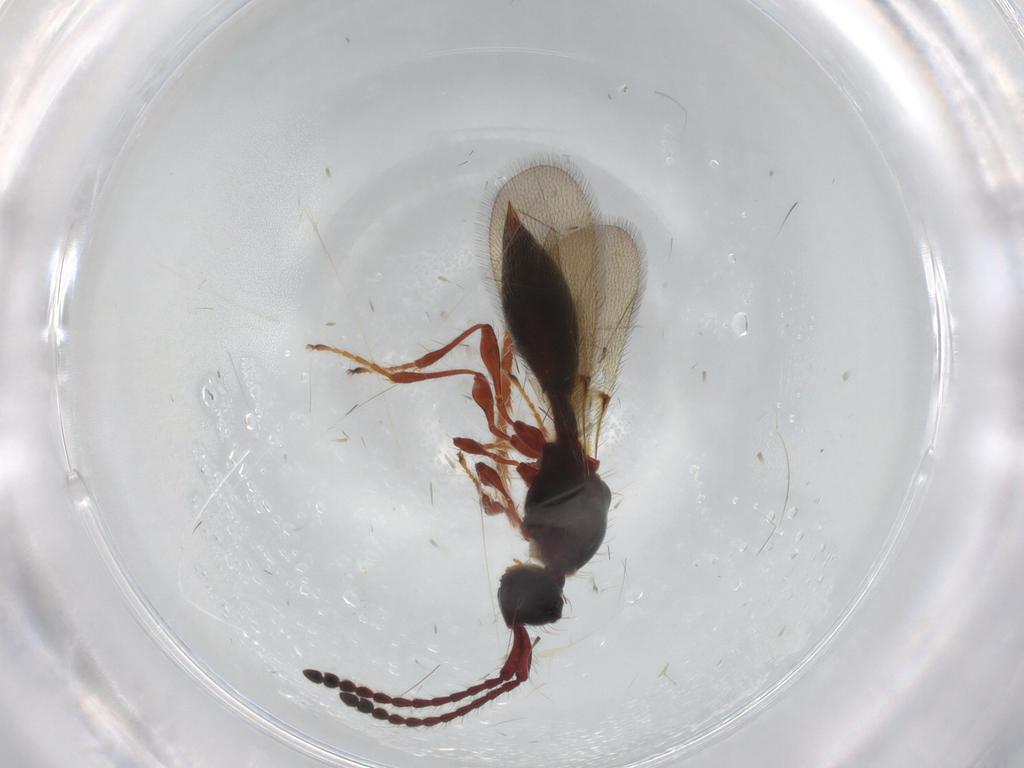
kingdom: Animalia
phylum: Arthropoda
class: Insecta
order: Hymenoptera
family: Diapriidae
